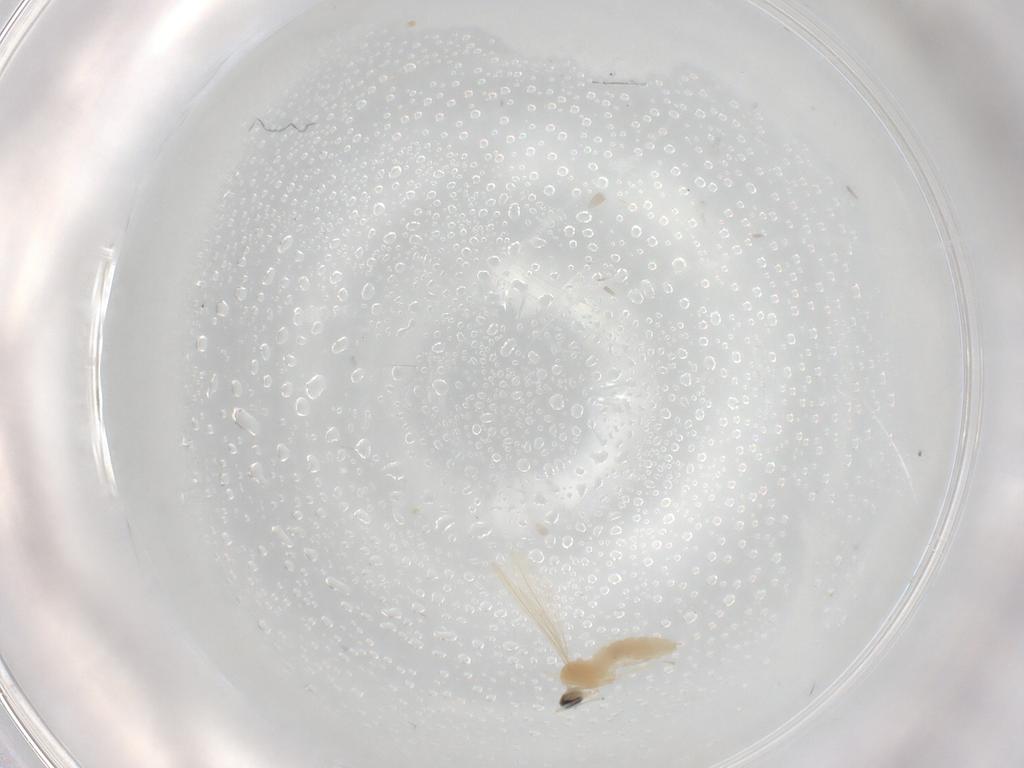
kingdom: Animalia
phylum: Arthropoda
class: Insecta
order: Diptera
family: Cecidomyiidae
